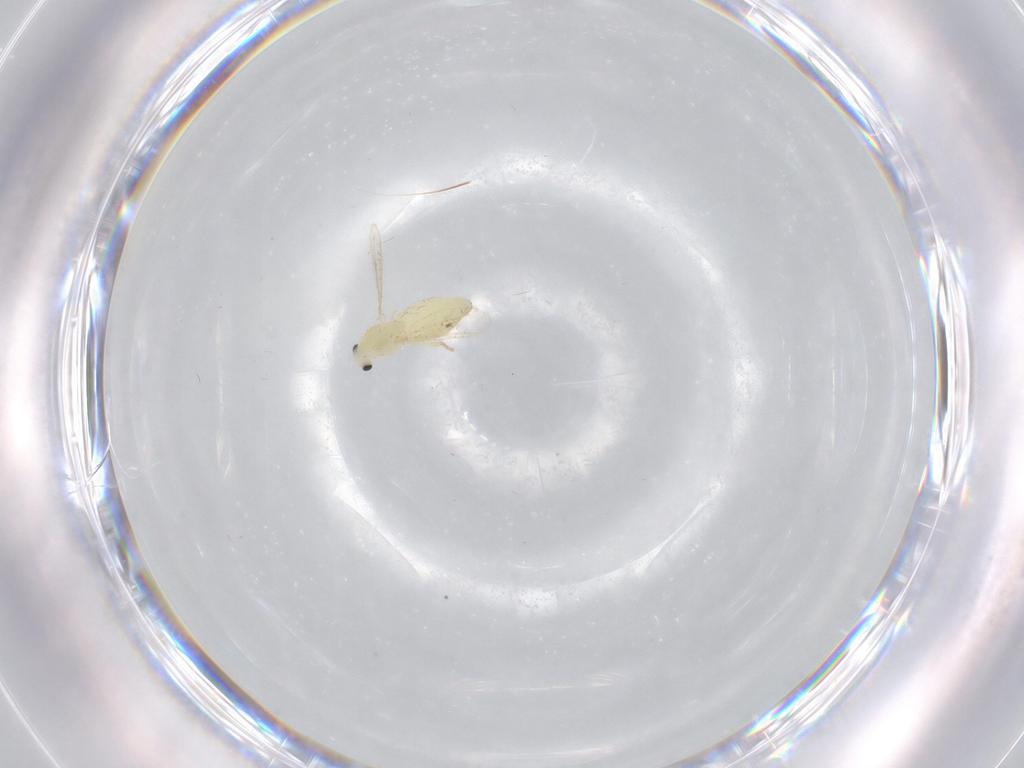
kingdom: Animalia
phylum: Arthropoda
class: Insecta
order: Diptera
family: Chironomidae
